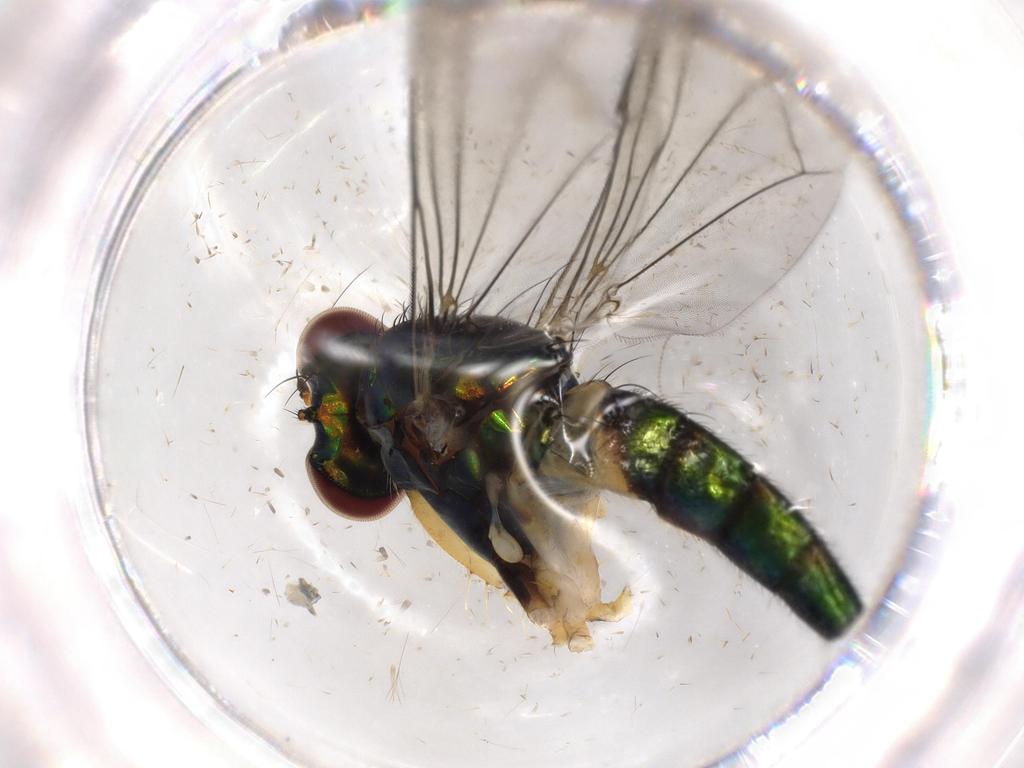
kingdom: Animalia
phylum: Arthropoda
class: Insecta
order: Diptera
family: Dolichopodidae
